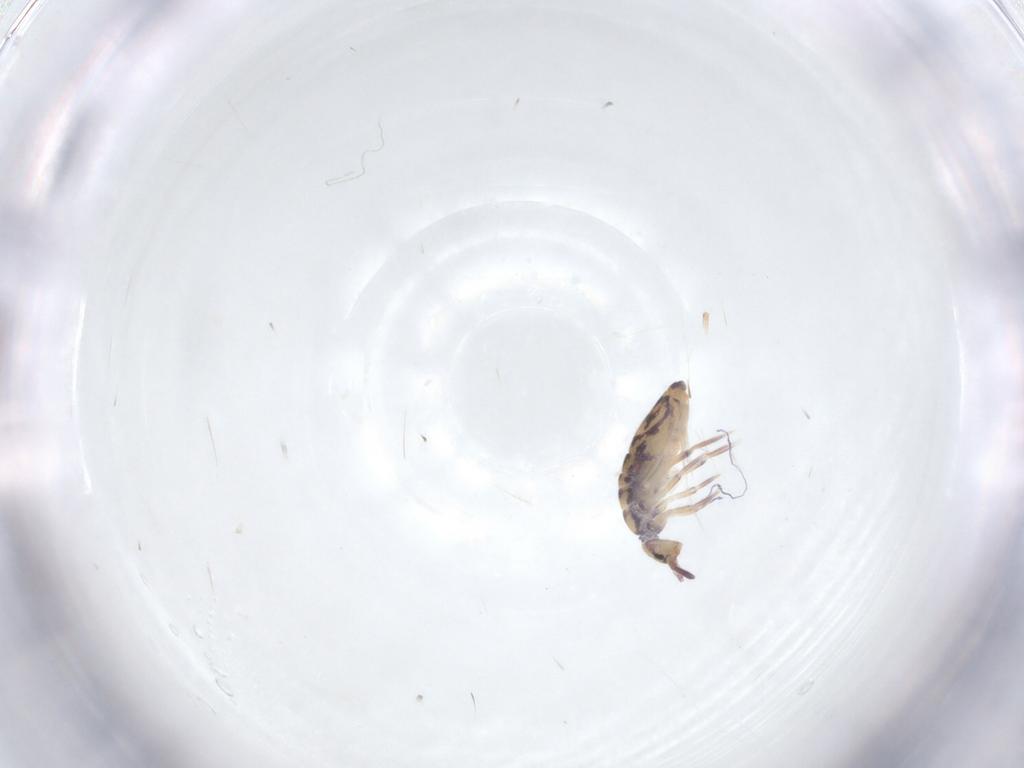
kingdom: Animalia
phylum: Arthropoda
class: Collembola
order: Entomobryomorpha
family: Entomobryidae
